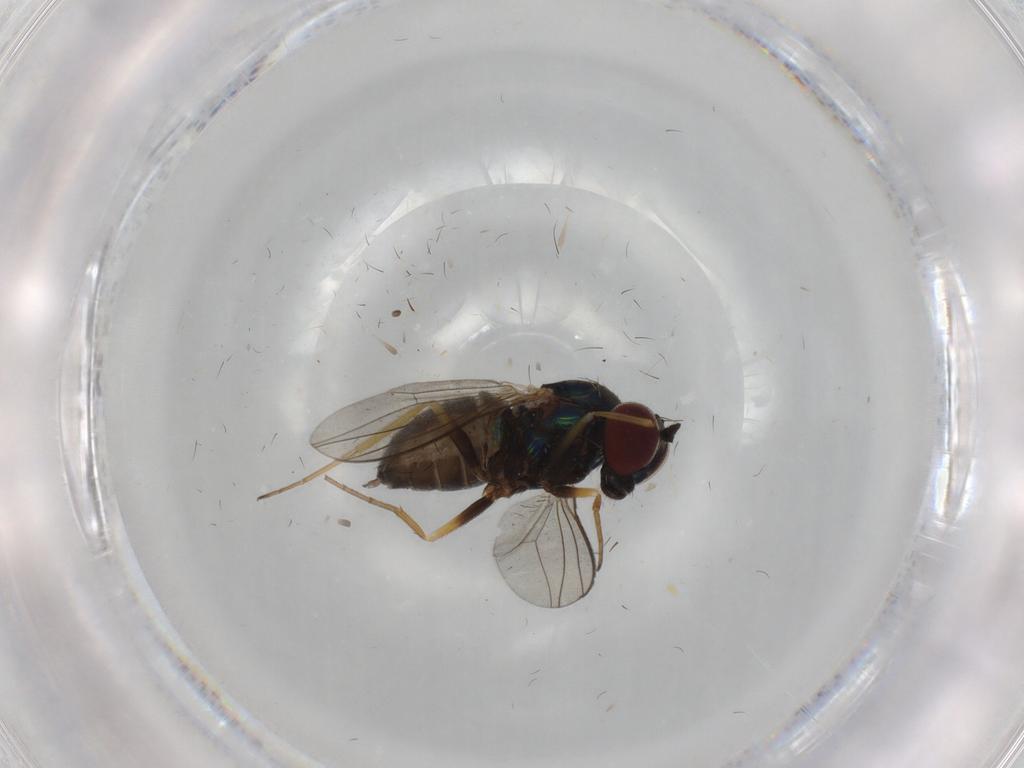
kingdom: Animalia
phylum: Arthropoda
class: Insecta
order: Diptera
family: Dolichopodidae
